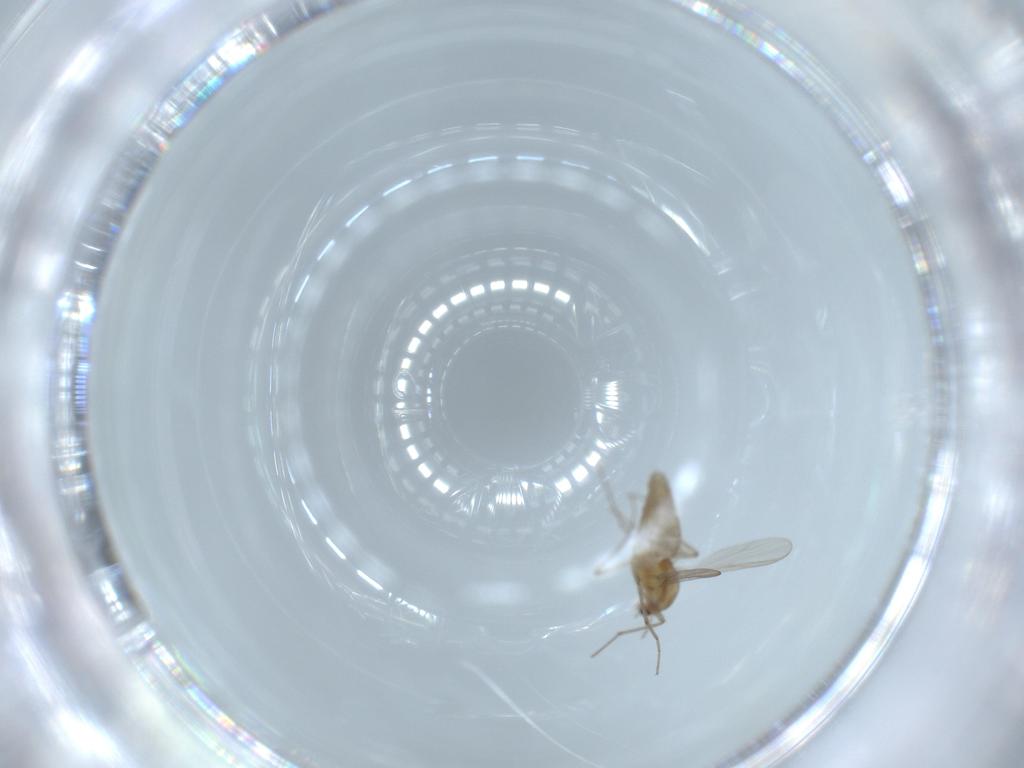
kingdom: Animalia
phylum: Arthropoda
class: Insecta
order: Diptera
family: Chironomidae
